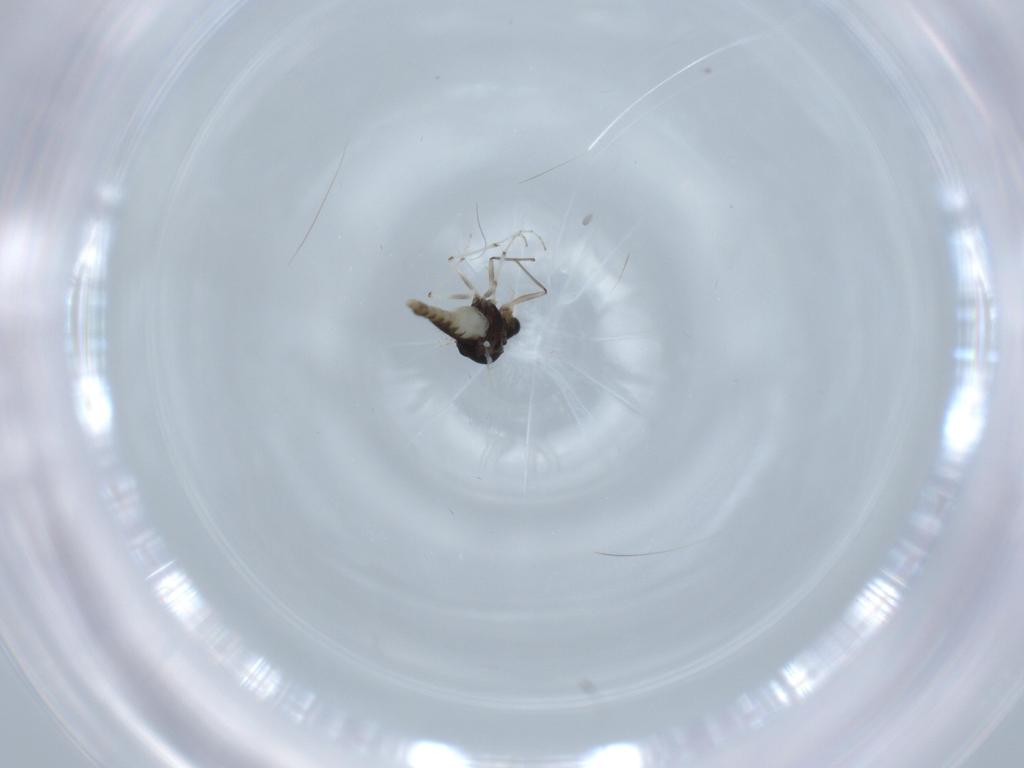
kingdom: Animalia
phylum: Arthropoda
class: Insecta
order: Diptera
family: Chironomidae
